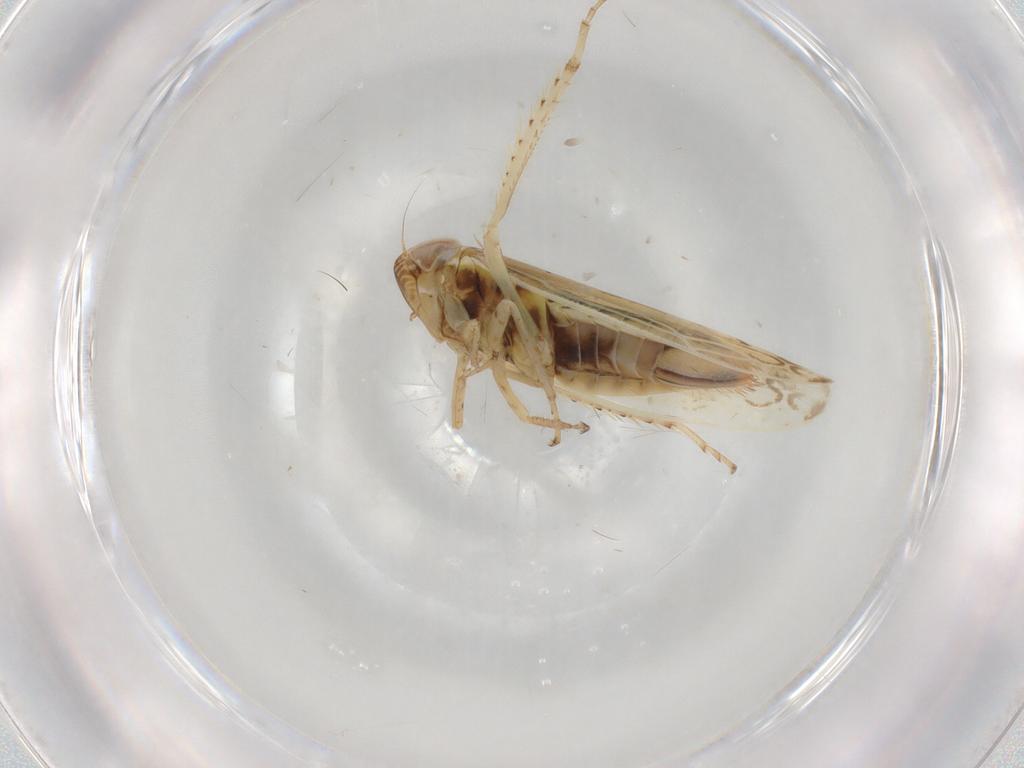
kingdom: Animalia
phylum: Arthropoda
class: Insecta
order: Hemiptera
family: Cicadellidae
